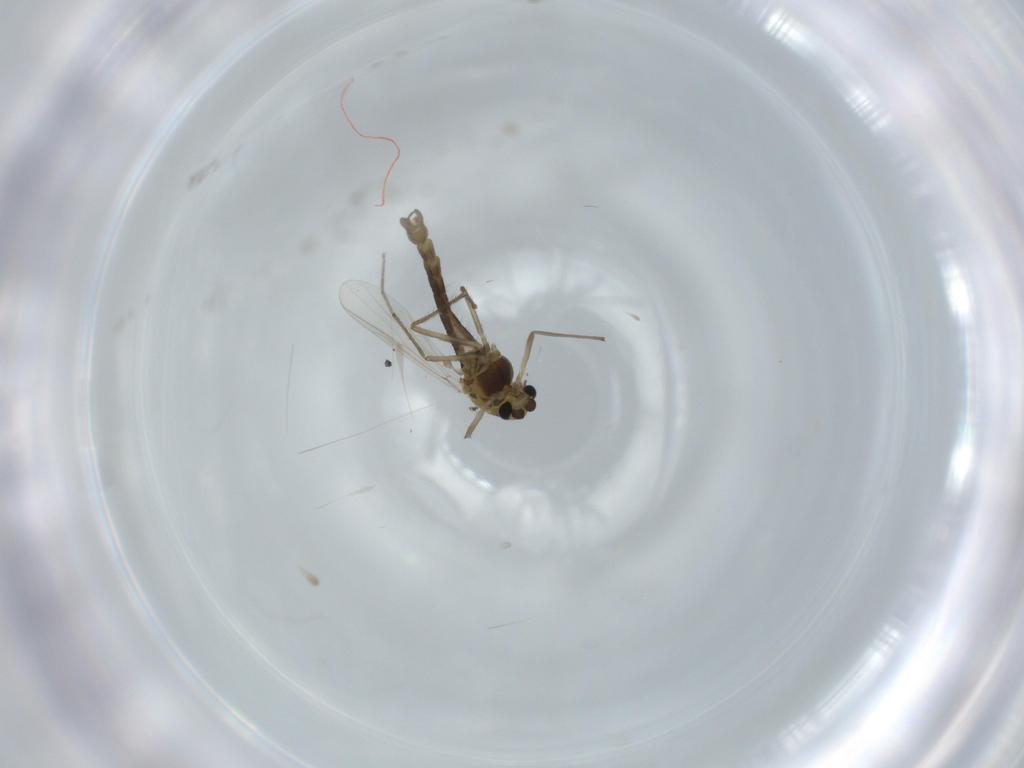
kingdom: Animalia
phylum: Arthropoda
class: Insecta
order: Diptera
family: Chironomidae
